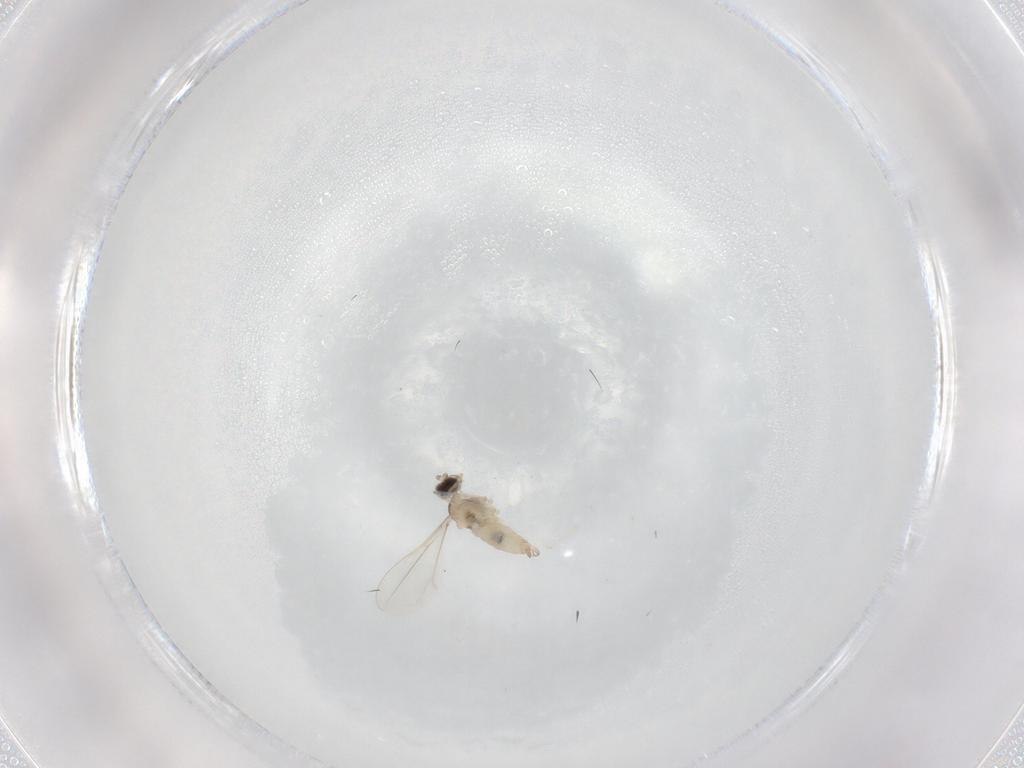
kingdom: Animalia
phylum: Arthropoda
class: Insecta
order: Diptera
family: Cecidomyiidae
